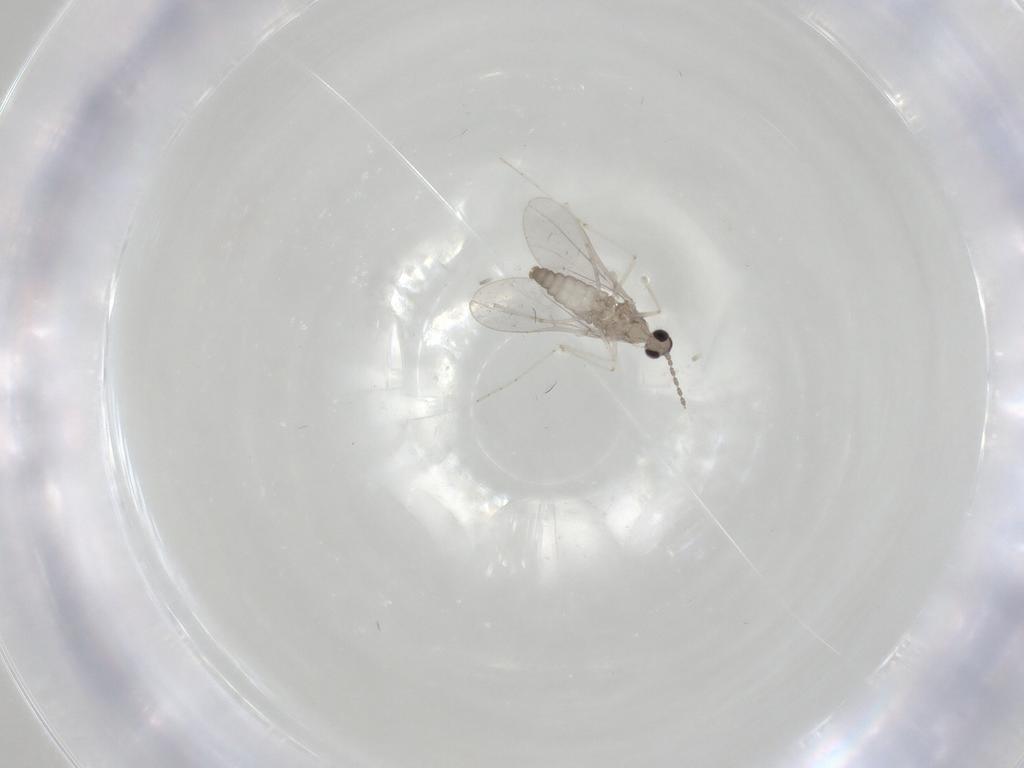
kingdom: Animalia
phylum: Arthropoda
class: Insecta
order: Diptera
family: Cecidomyiidae
